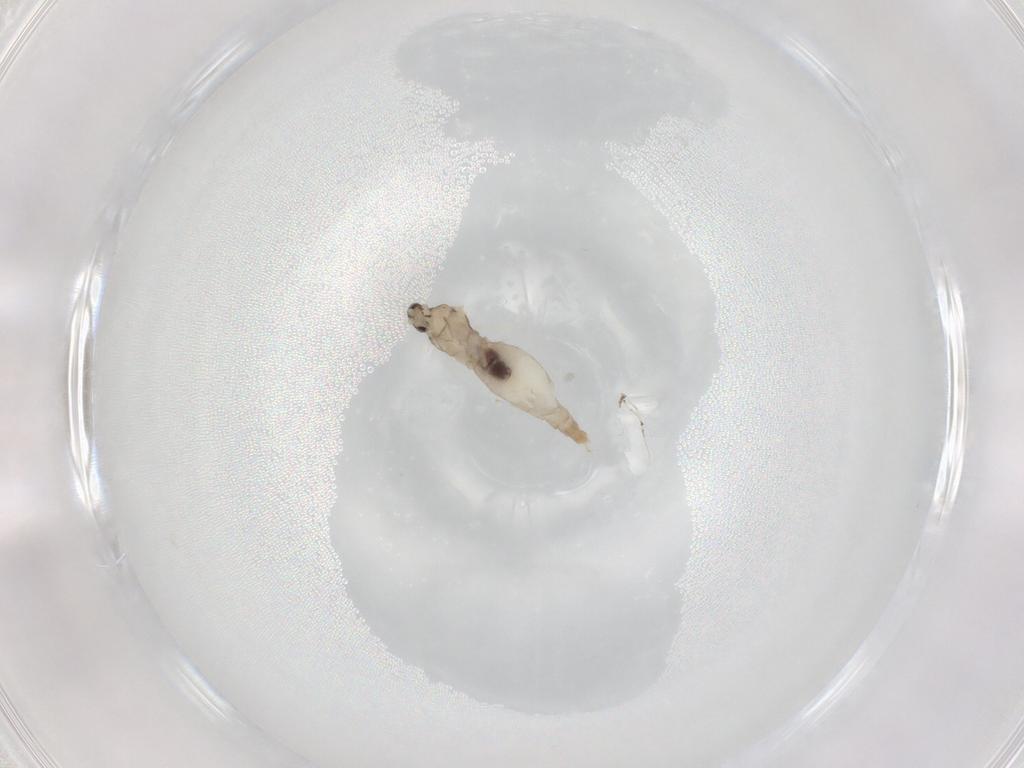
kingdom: Animalia
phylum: Arthropoda
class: Insecta
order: Diptera
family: Cecidomyiidae
